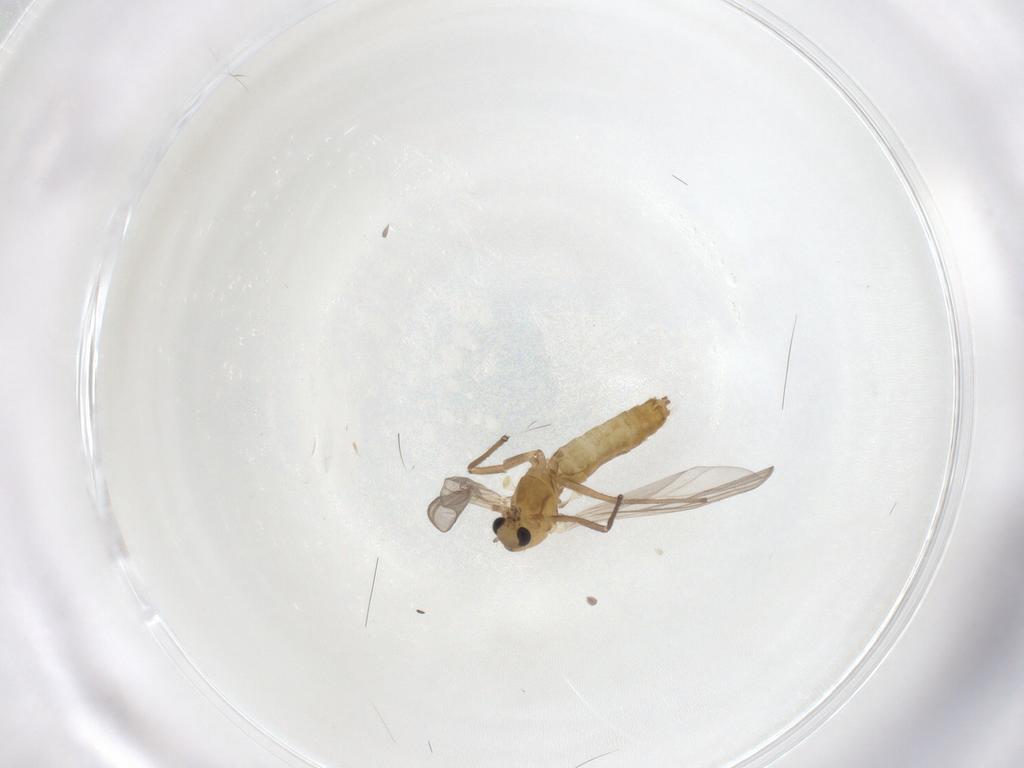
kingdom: Animalia
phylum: Arthropoda
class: Insecta
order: Diptera
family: Chironomidae
